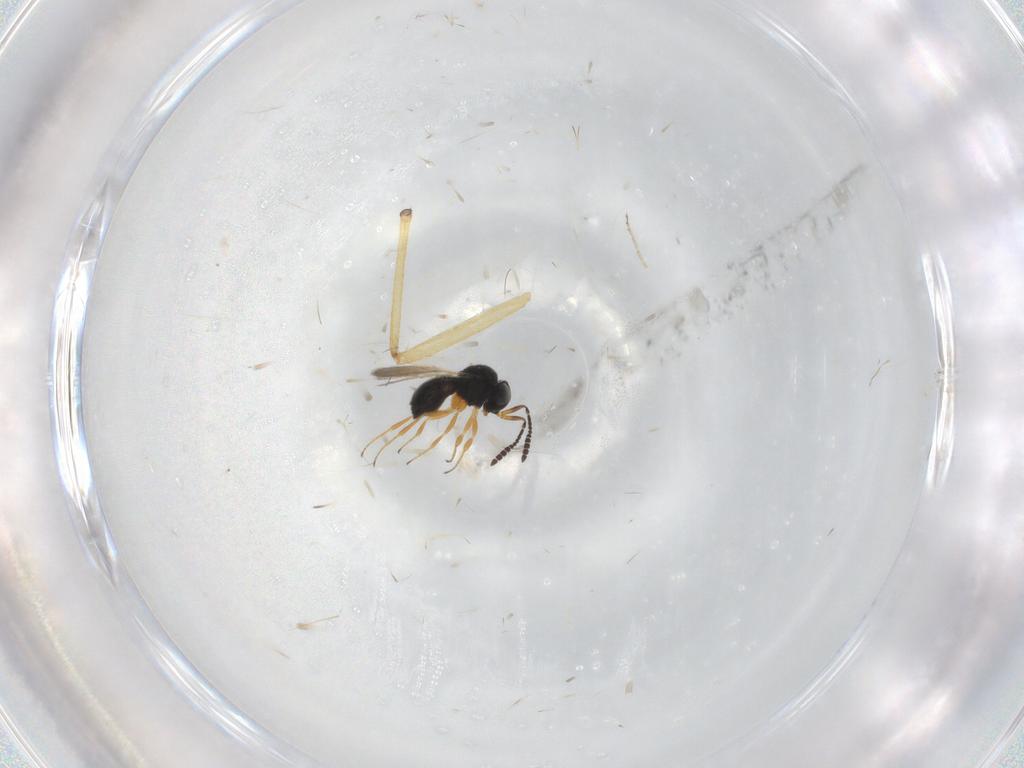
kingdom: Animalia
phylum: Arthropoda
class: Insecta
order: Hymenoptera
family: Scelionidae
